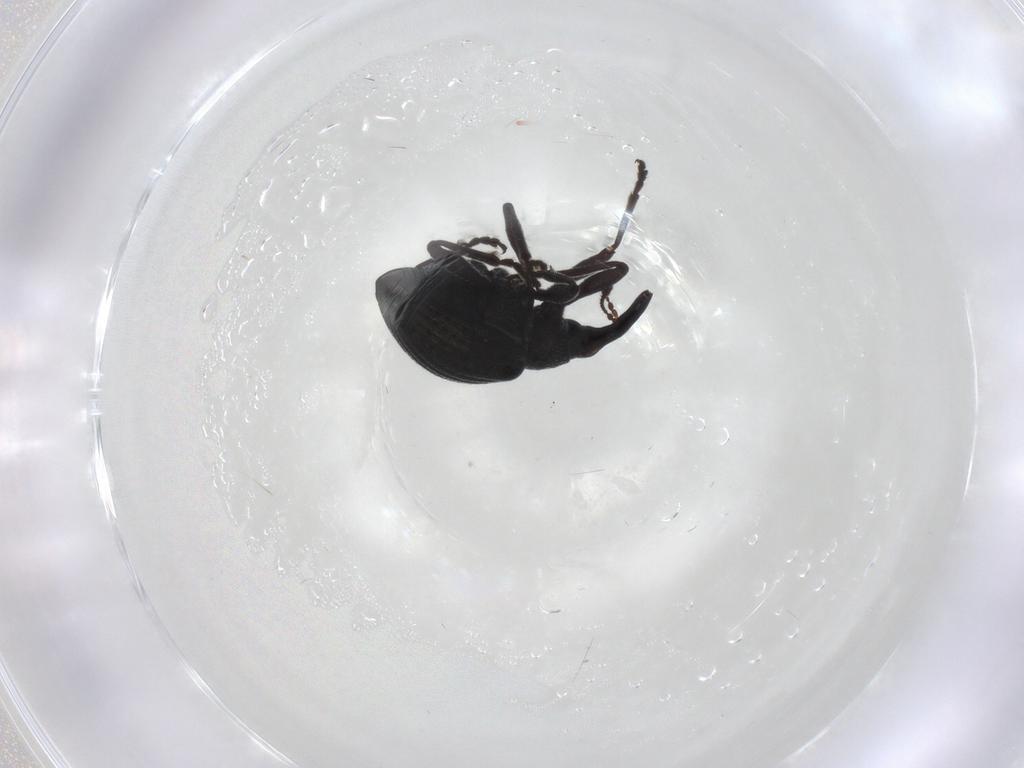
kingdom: Animalia
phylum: Arthropoda
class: Insecta
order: Coleoptera
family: Brentidae
